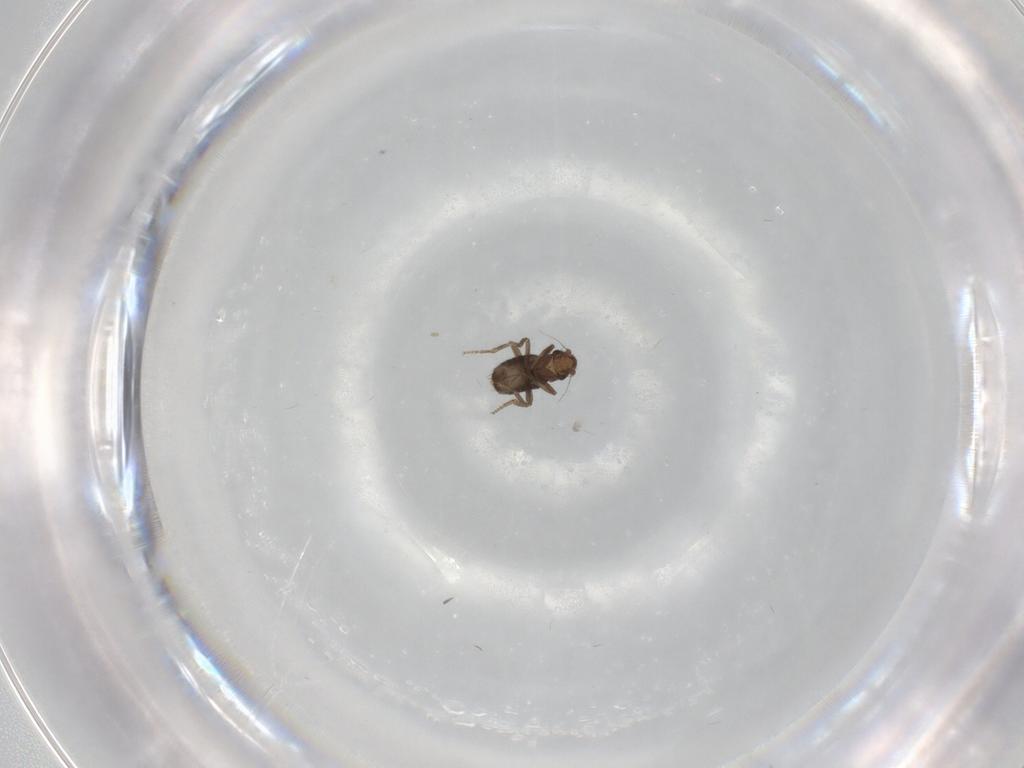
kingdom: Animalia
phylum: Arthropoda
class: Insecta
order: Diptera
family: Phoridae
